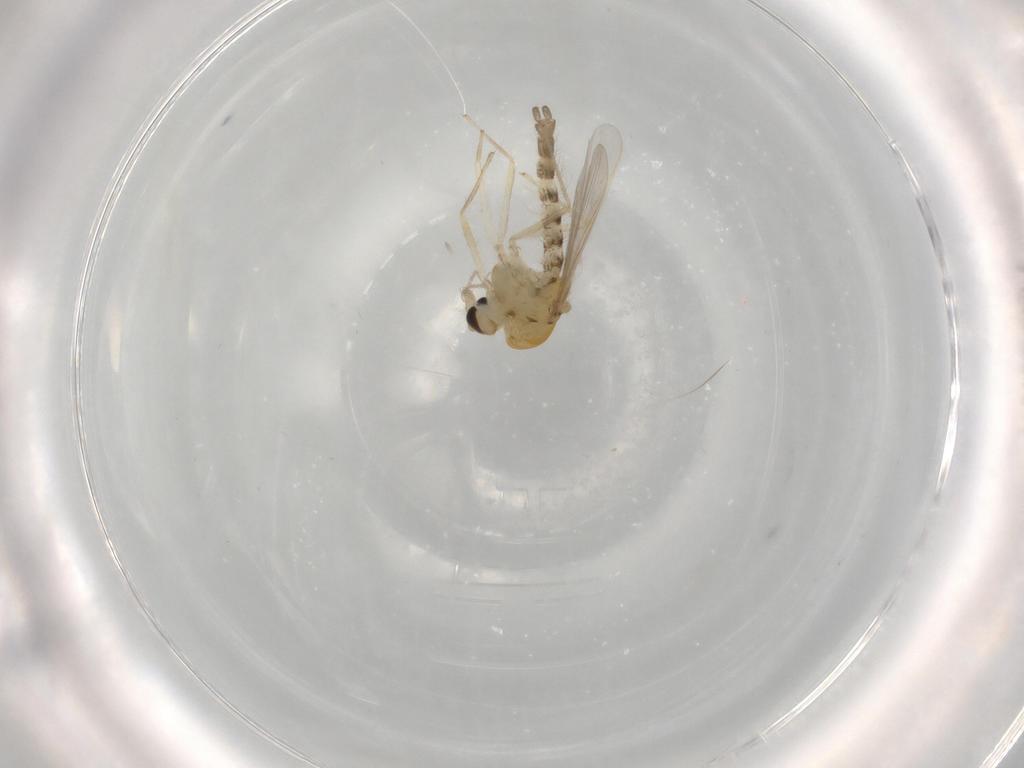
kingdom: Animalia
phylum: Arthropoda
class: Insecta
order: Diptera
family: Chironomidae
